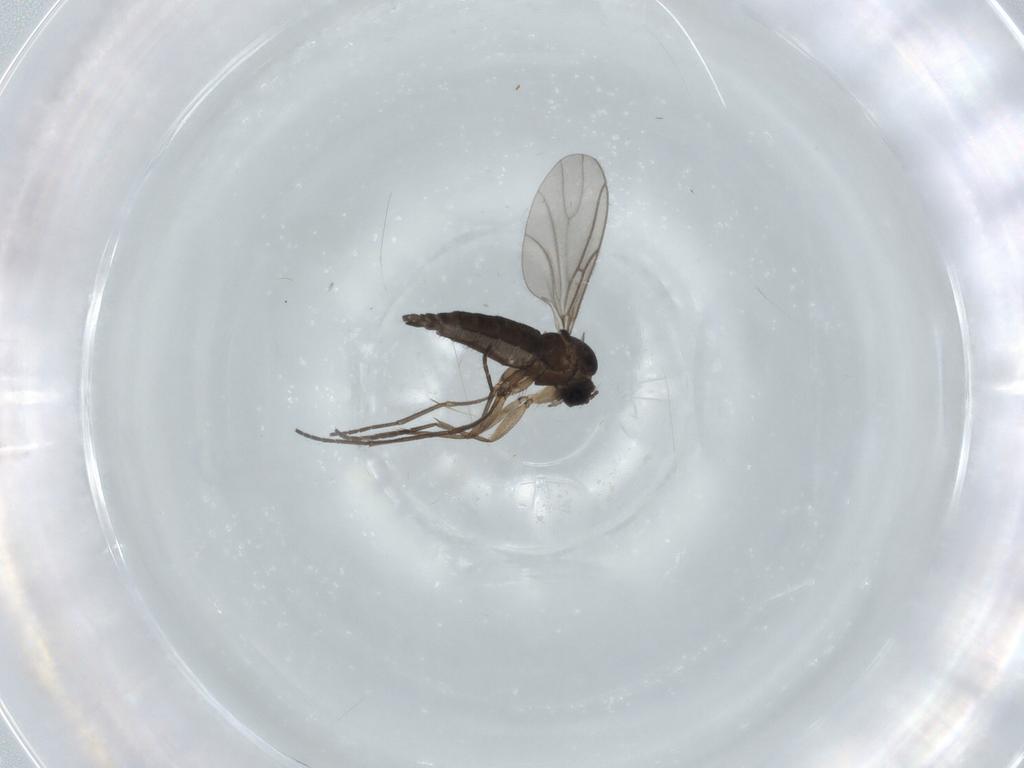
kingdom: Animalia
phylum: Arthropoda
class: Insecta
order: Diptera
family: Sciaridae
